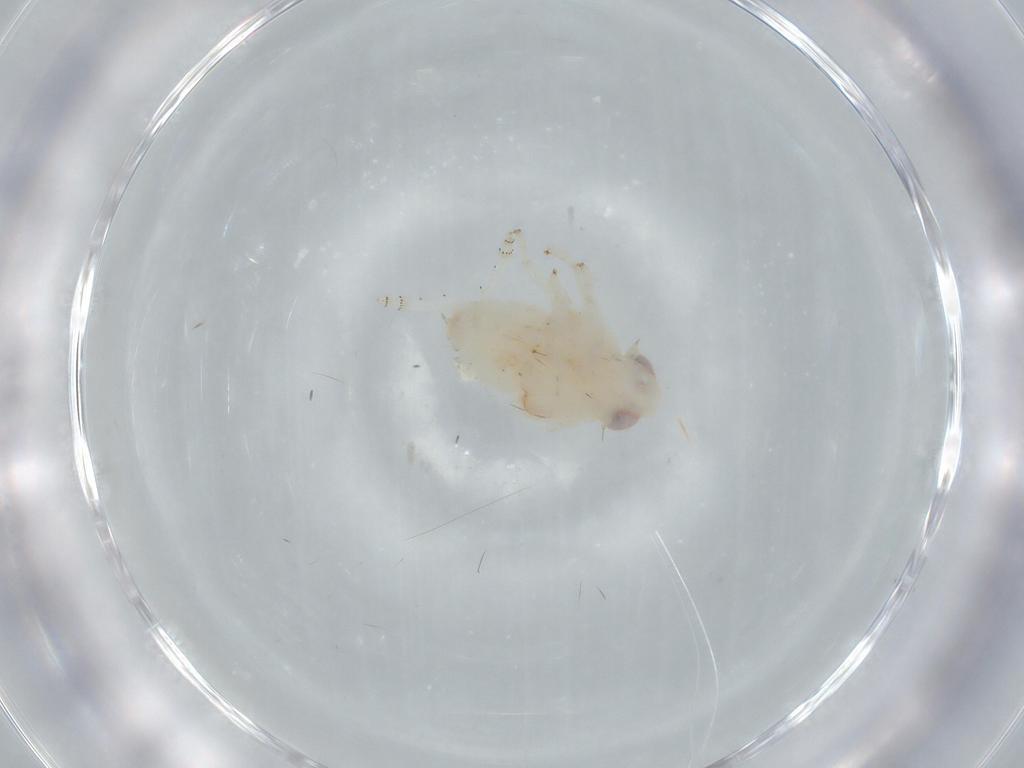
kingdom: Animalia
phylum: Arthropoda
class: Insecta
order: Hemiptera
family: Nogodinidae
